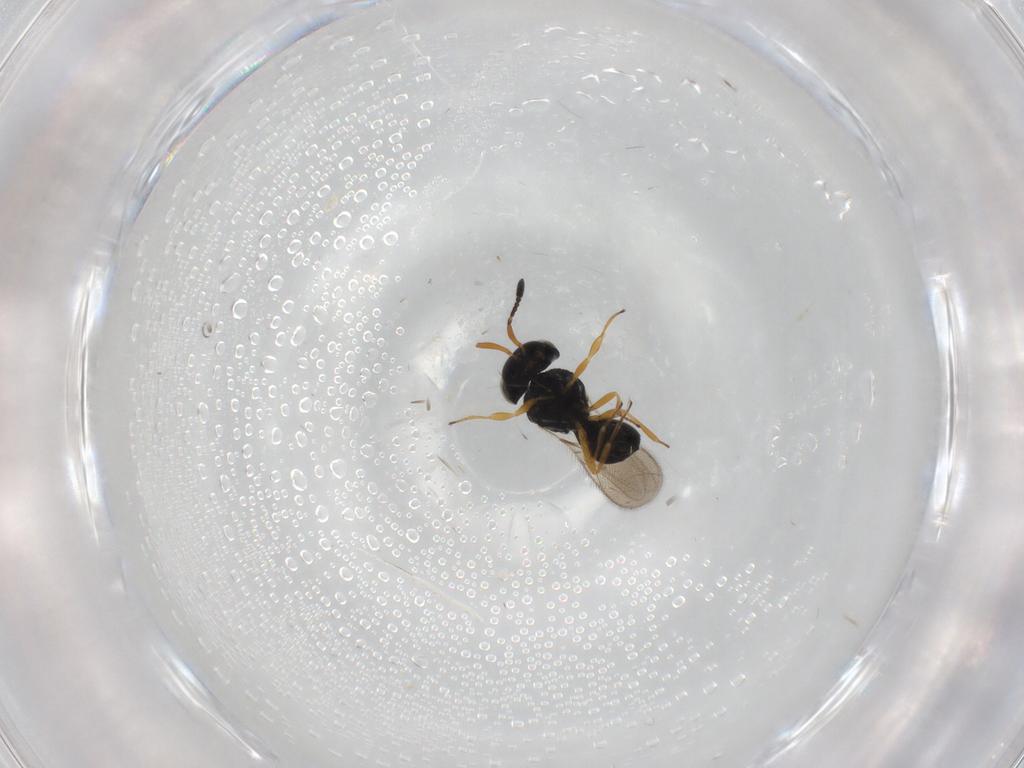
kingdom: Animalia
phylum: Arthropoda
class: Insecta
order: Hymenoptera
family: Scelionidae
